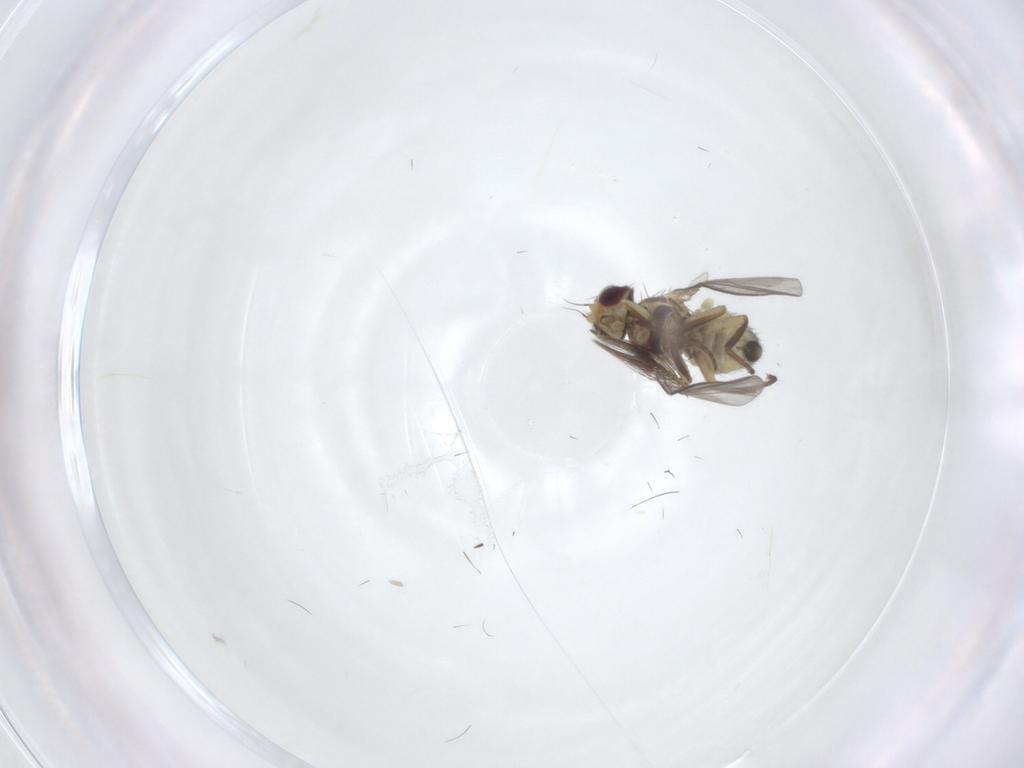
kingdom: Animalia
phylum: Arthropoda
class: Insecta
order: Diptera
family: Agromyzidae
